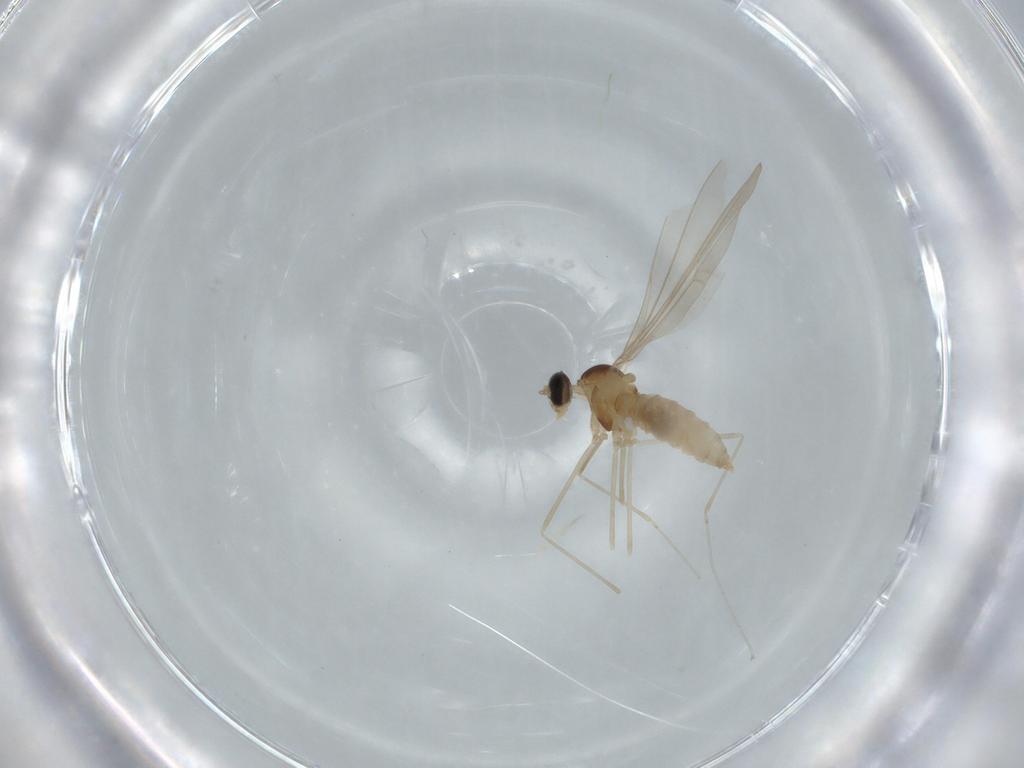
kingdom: Animalia
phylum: Arthropoda
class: Insecta
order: Diptera
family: Cecidomyiidae
